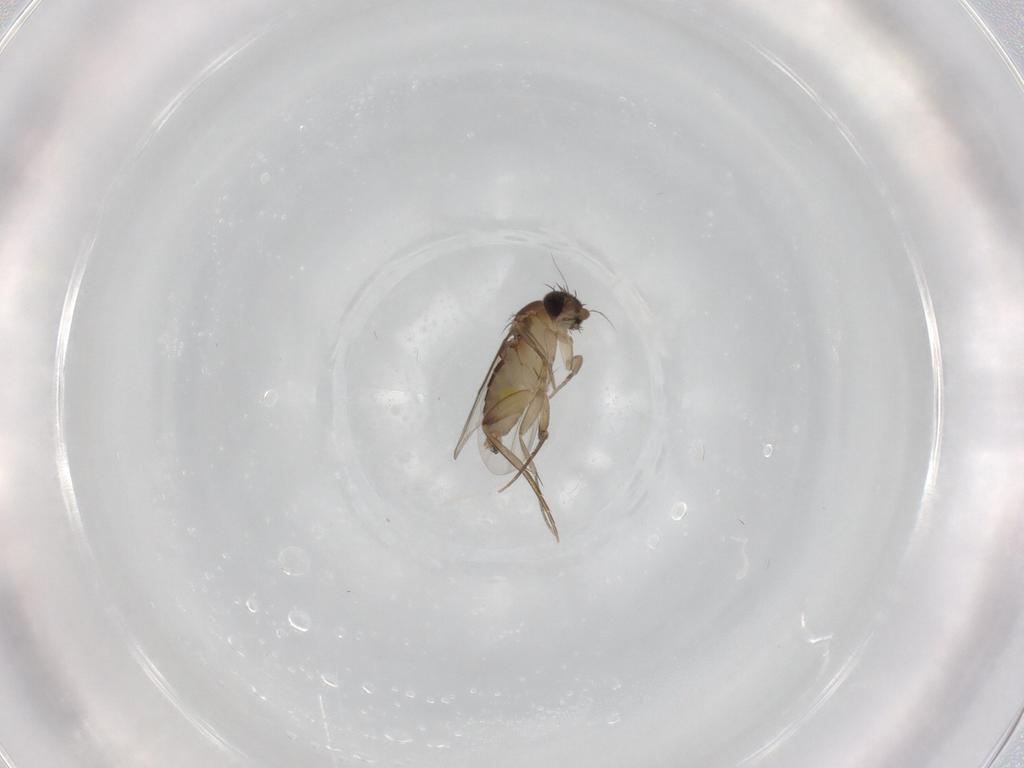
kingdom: Animalia
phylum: Arthropoda
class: Insecta
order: Diptera
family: Phoridae
